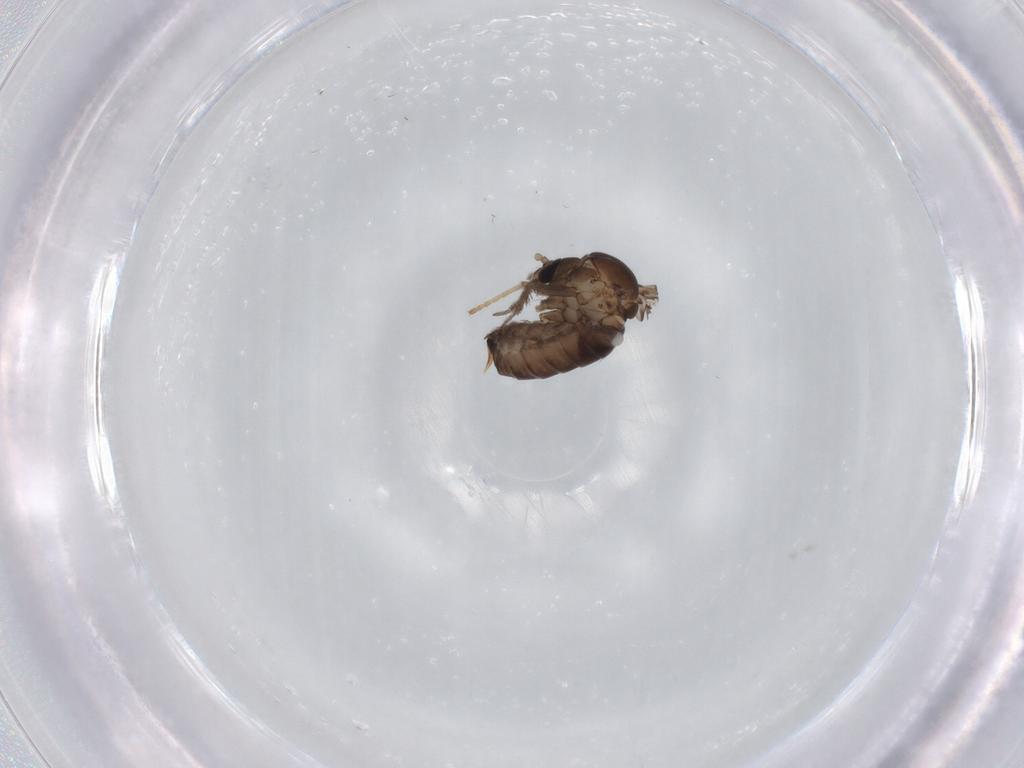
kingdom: Animalia
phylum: Arthropoda
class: Insecta
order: Diptera
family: Psychodidae
